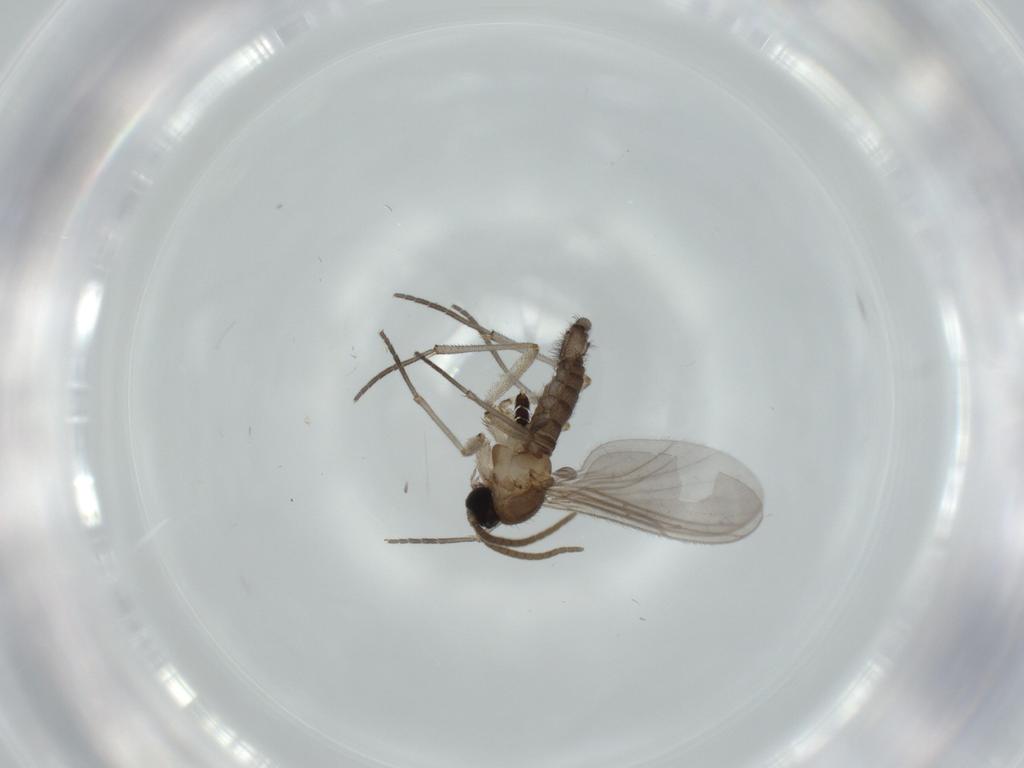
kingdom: Animalia
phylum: Arthropoda
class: Insecta
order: Diptera
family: Sciaridae
